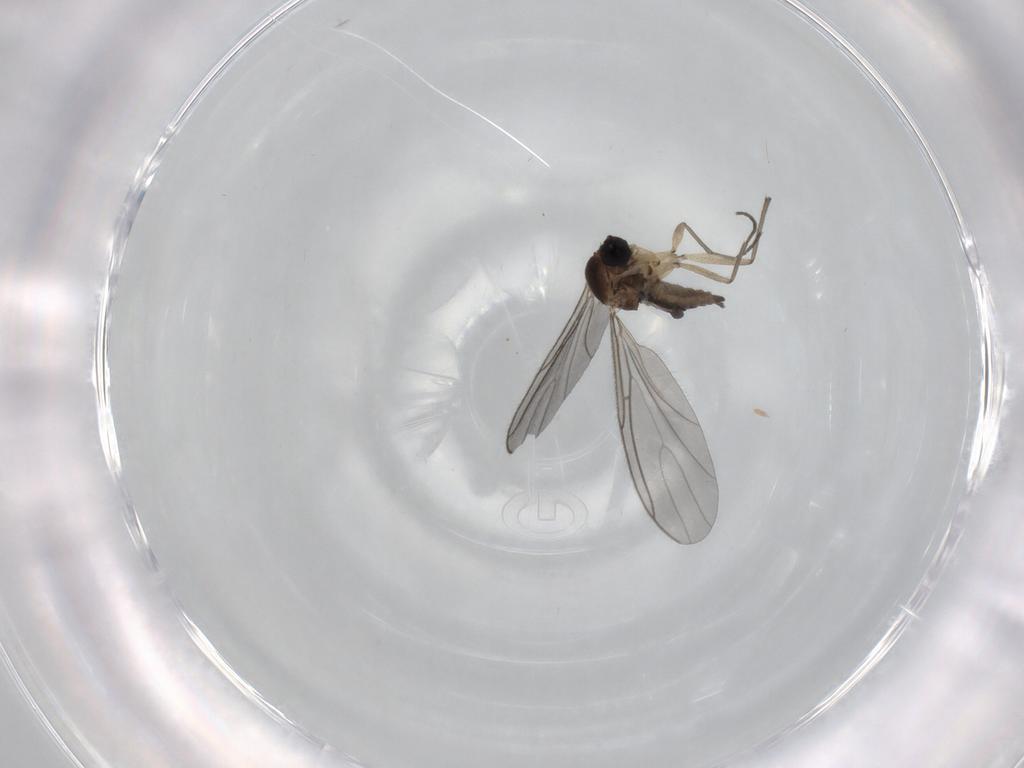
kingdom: Animalia
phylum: Arthropoda
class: Insecta
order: Diptera
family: Sciaridae
